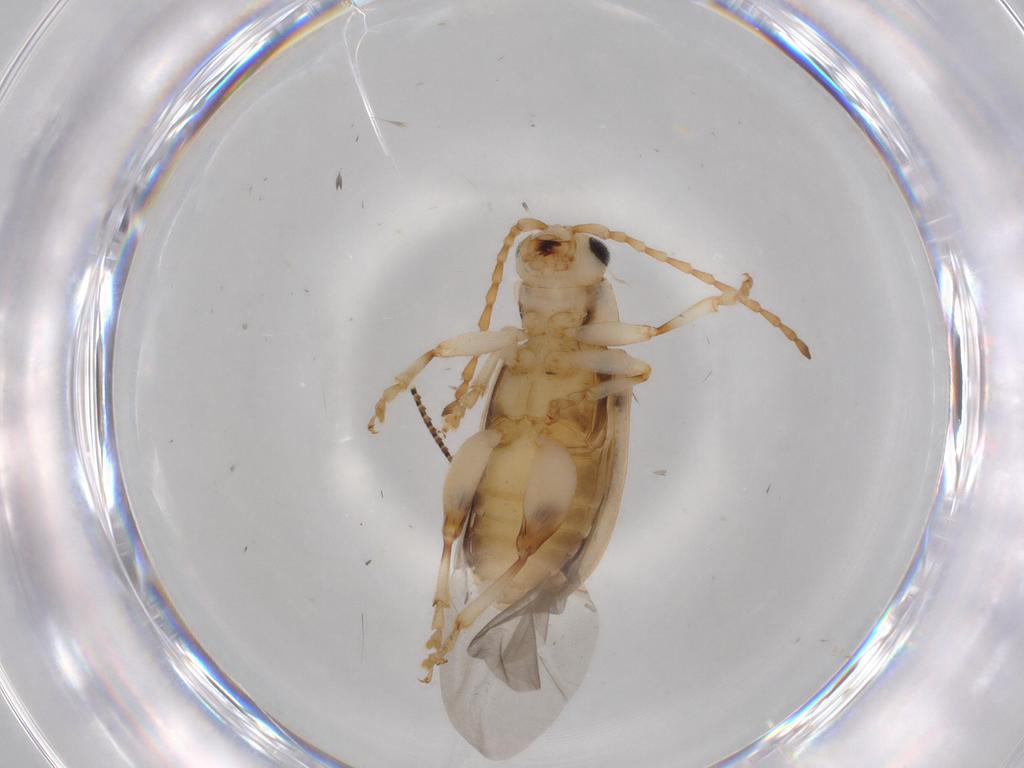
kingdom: Animalia
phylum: Arthropoda
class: Insecta
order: Coleoptera
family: Chrysomelidae
